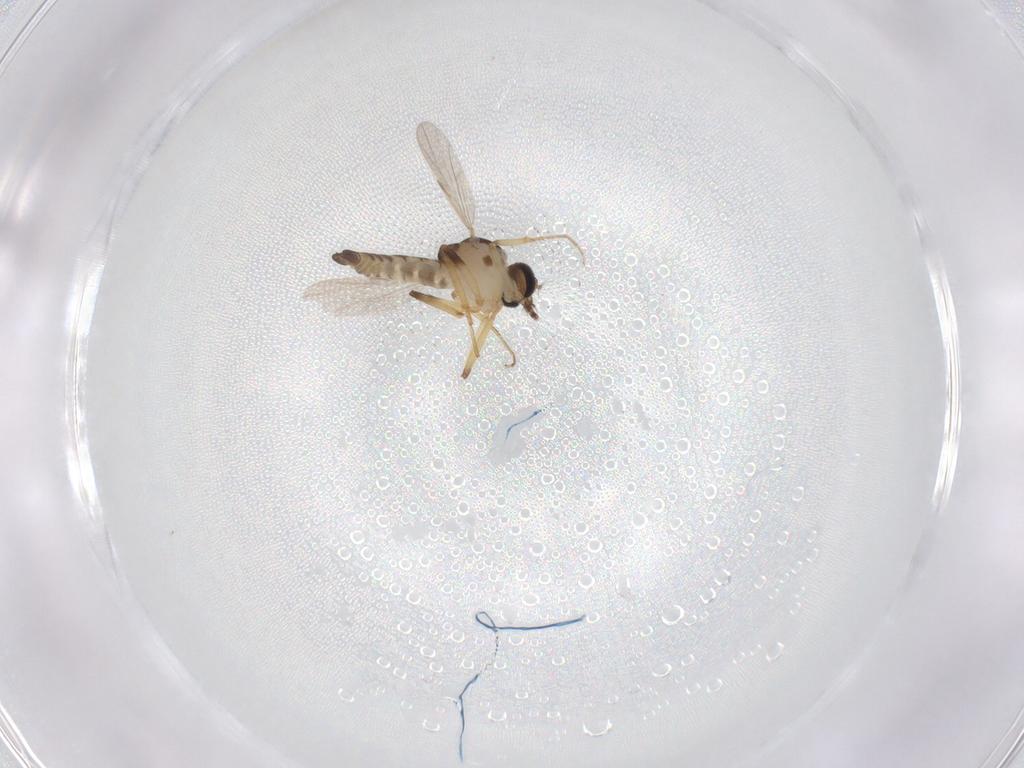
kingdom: Animalia
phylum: Arthropoda
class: Insecta
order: Diptera
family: Ceratopogonidae
